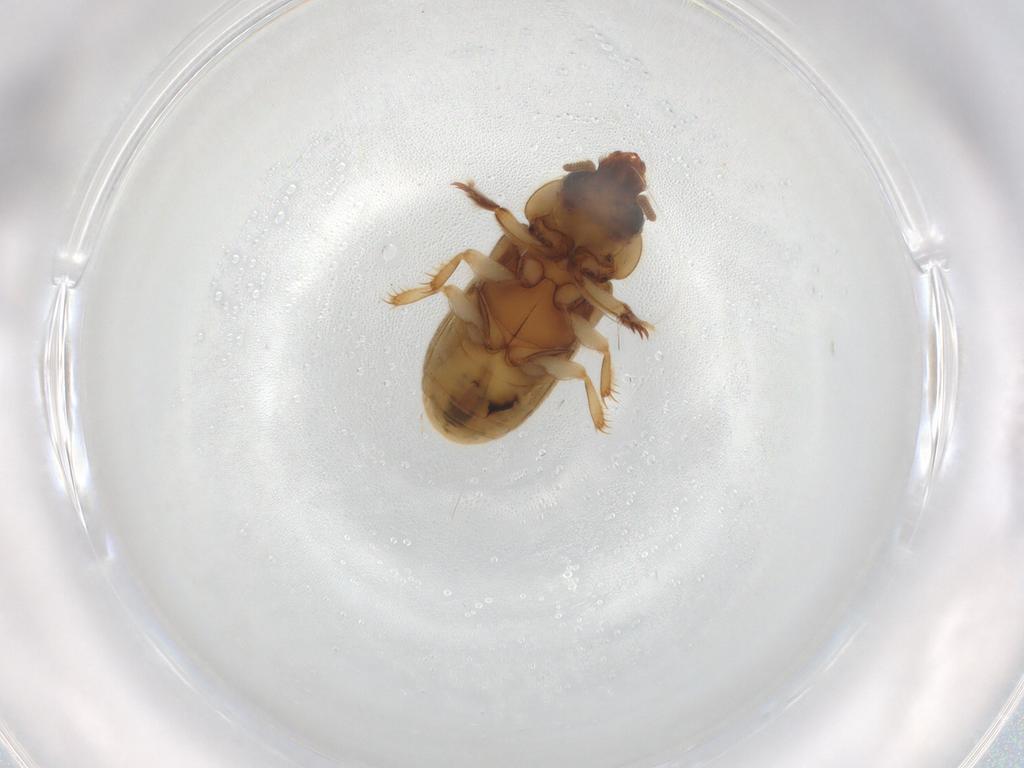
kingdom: Animalia
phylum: Arthropoda
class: Insecta
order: Coleoptera
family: Heteroceridae
